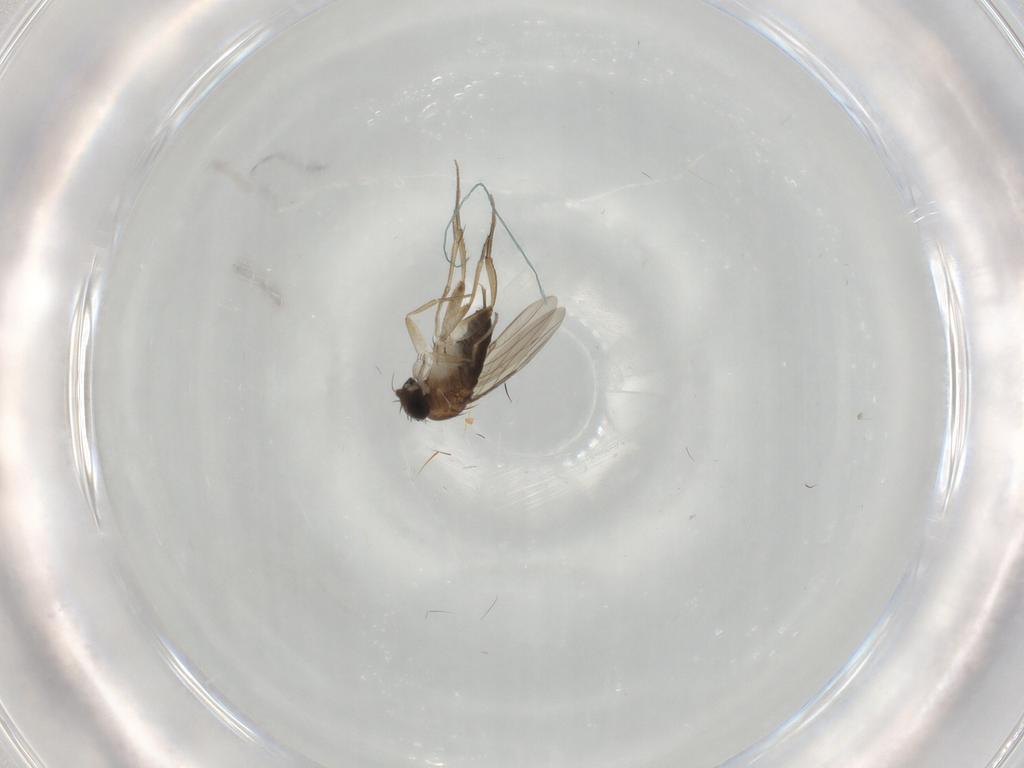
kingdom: Animalia
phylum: Arthropoda
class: Insecta
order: Diptera
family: Phoridae
